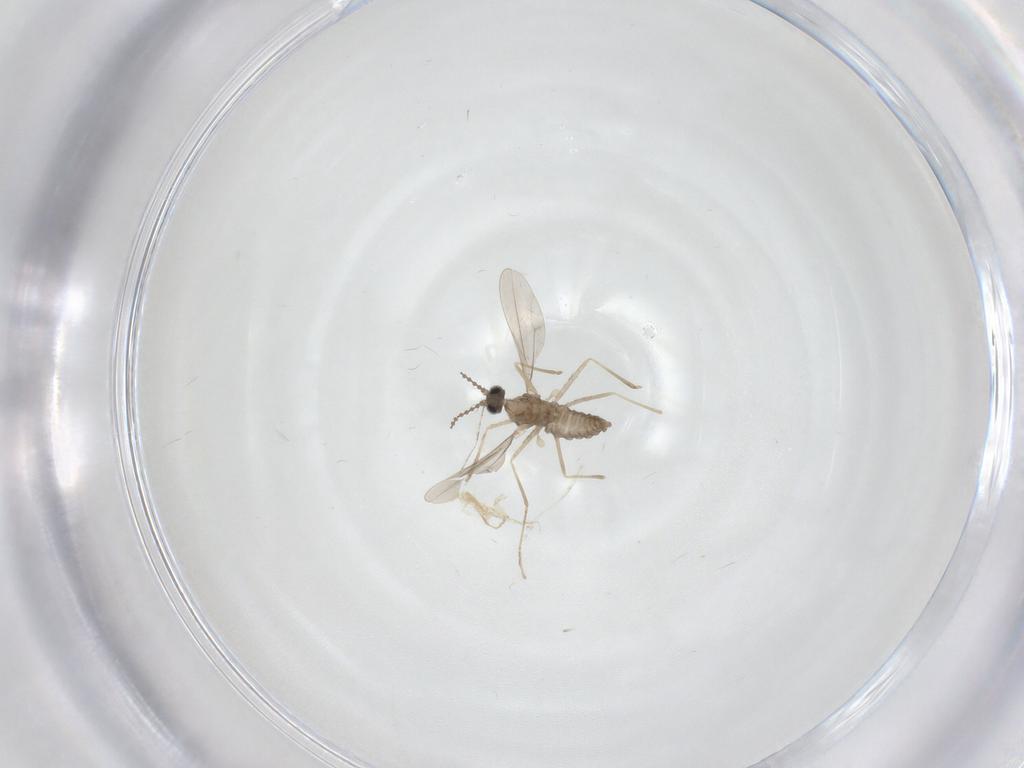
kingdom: Animalia
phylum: Arthropoda
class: Insecta
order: Diptera
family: Cecidomyiidae
